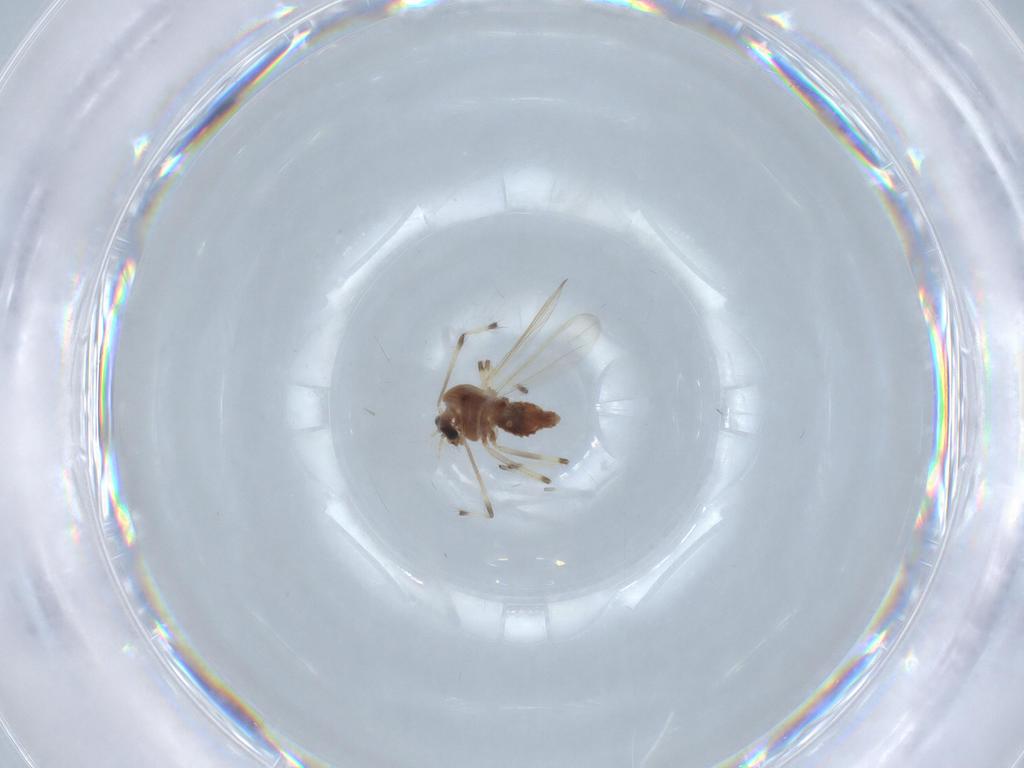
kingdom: Animalia
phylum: Arthropoda
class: Insecta
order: Diptera
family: Chironomidae
